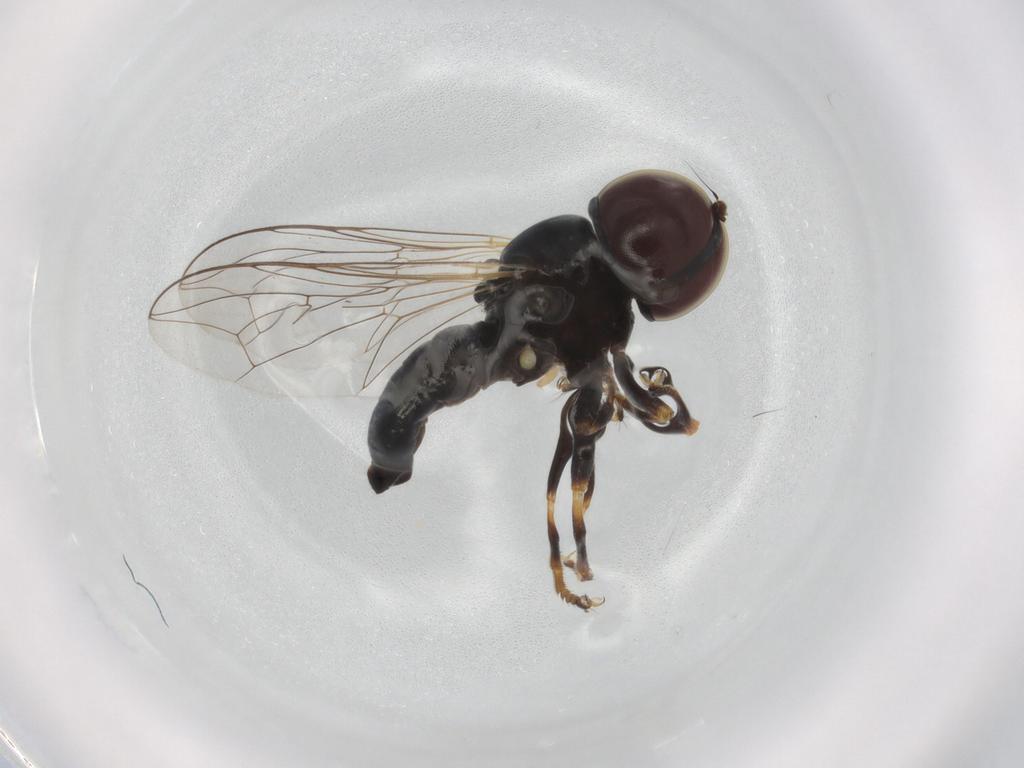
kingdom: Animalia
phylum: Arthropoda
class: Insecta
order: Diptera
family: Pipunculidae
